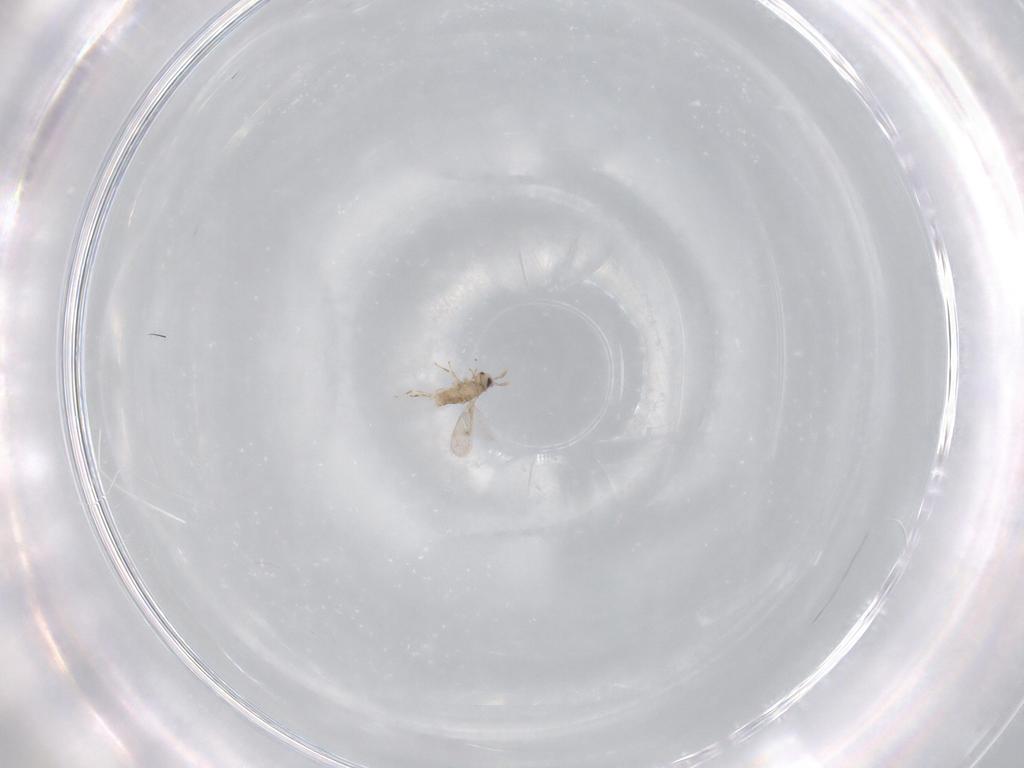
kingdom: Animalia
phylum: Arthropoda
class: Insecta
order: Hymenoptera
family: Aphelinidae
